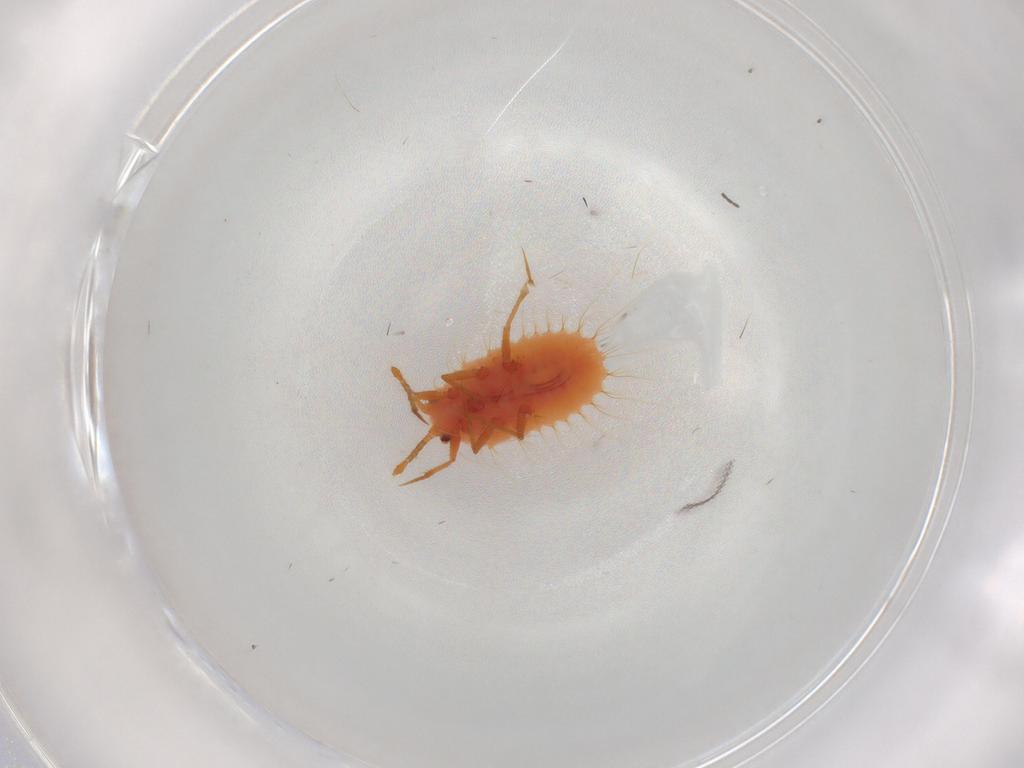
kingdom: Animalia
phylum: Arthropoda
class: Insecta
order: Hemiptera
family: Coccoidea_incertae_sedis
